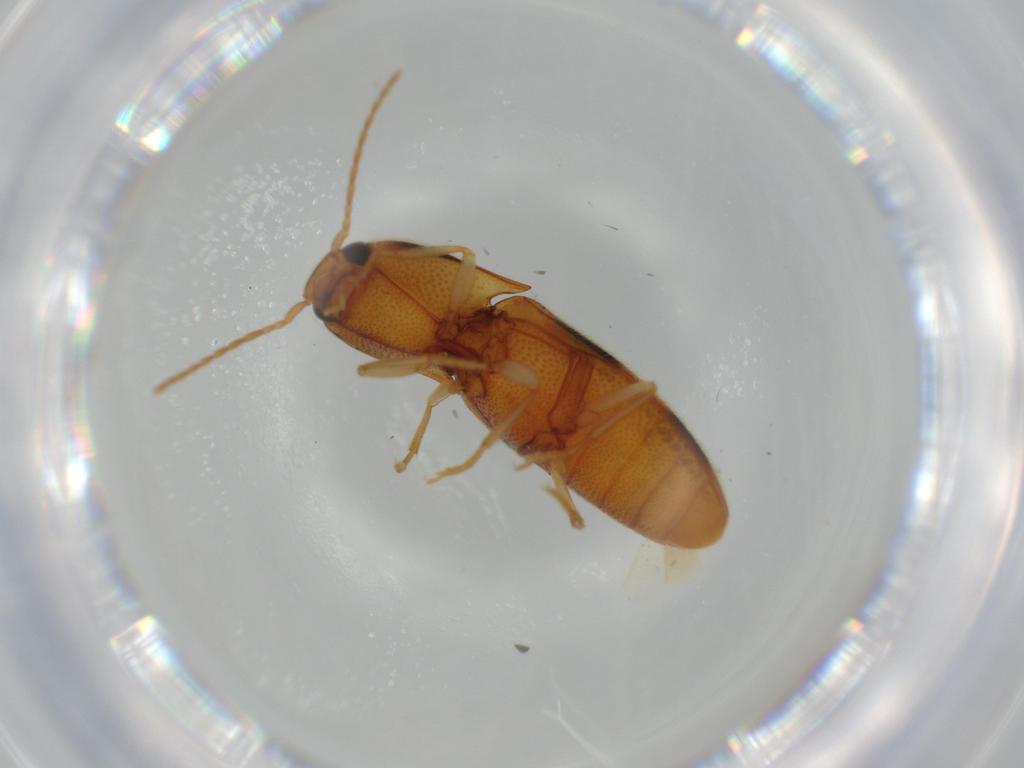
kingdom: Animalia
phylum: Arthropoda
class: Insecta
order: Coleoptera
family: Elateridae
